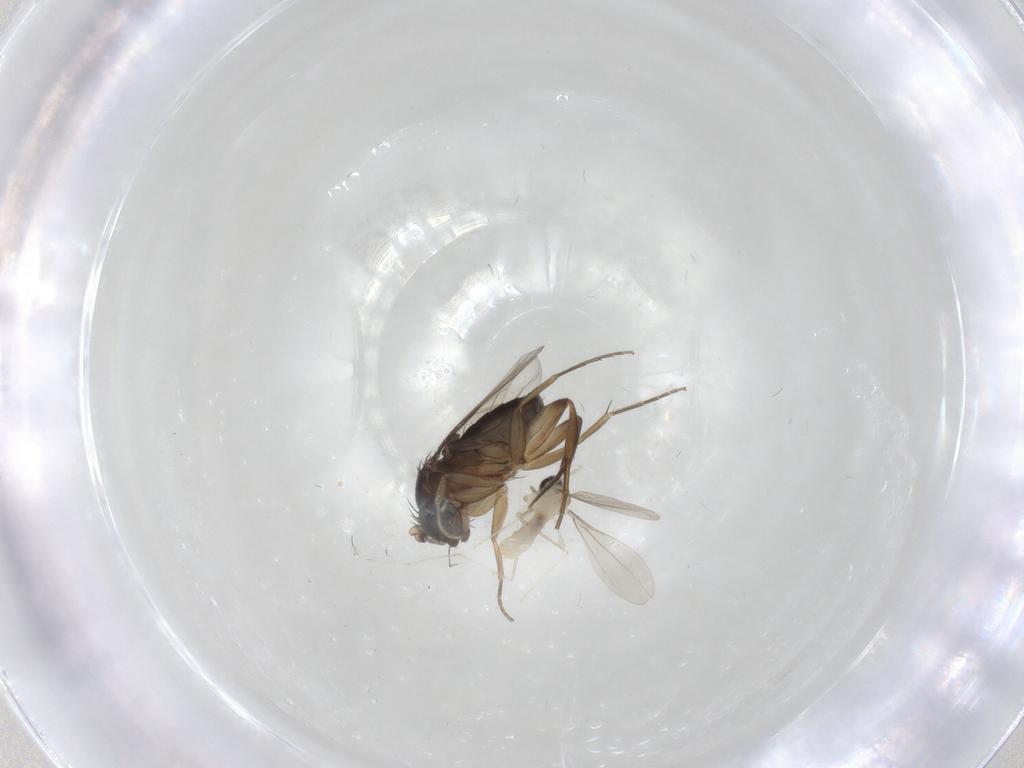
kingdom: Animalia
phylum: Arthropoda
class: Insecta
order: Diptera
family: Cecidomyiidae
